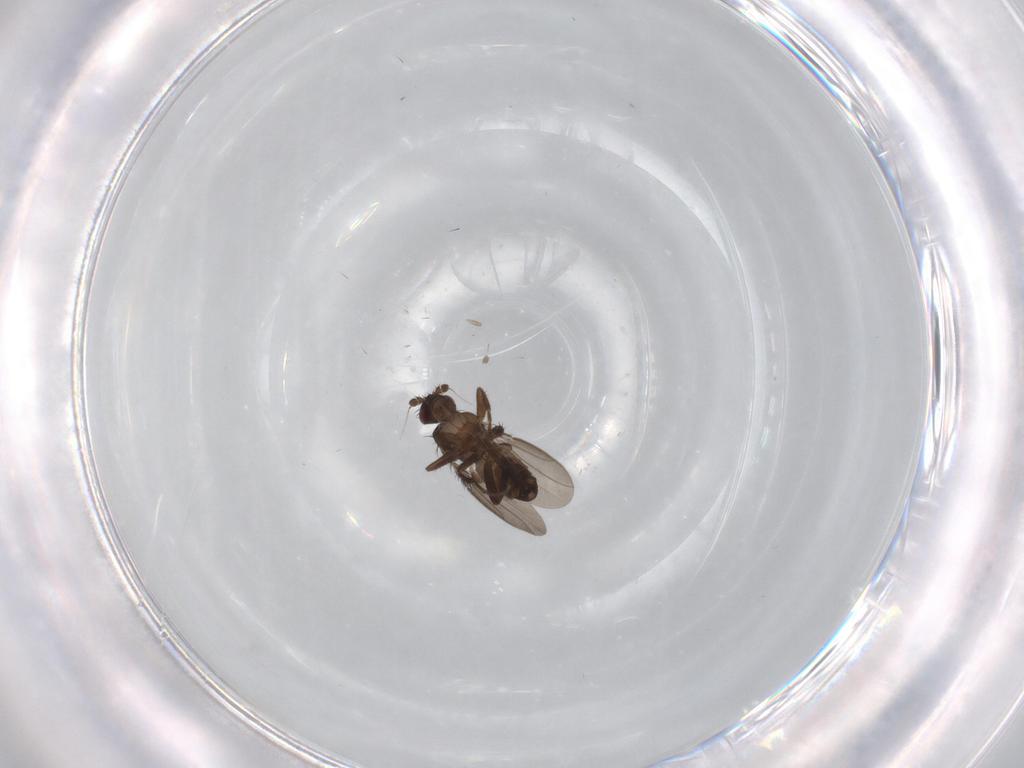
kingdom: Animalia
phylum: Arthropoda
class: Insecta
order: Diptera
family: Sphaeroceridae
